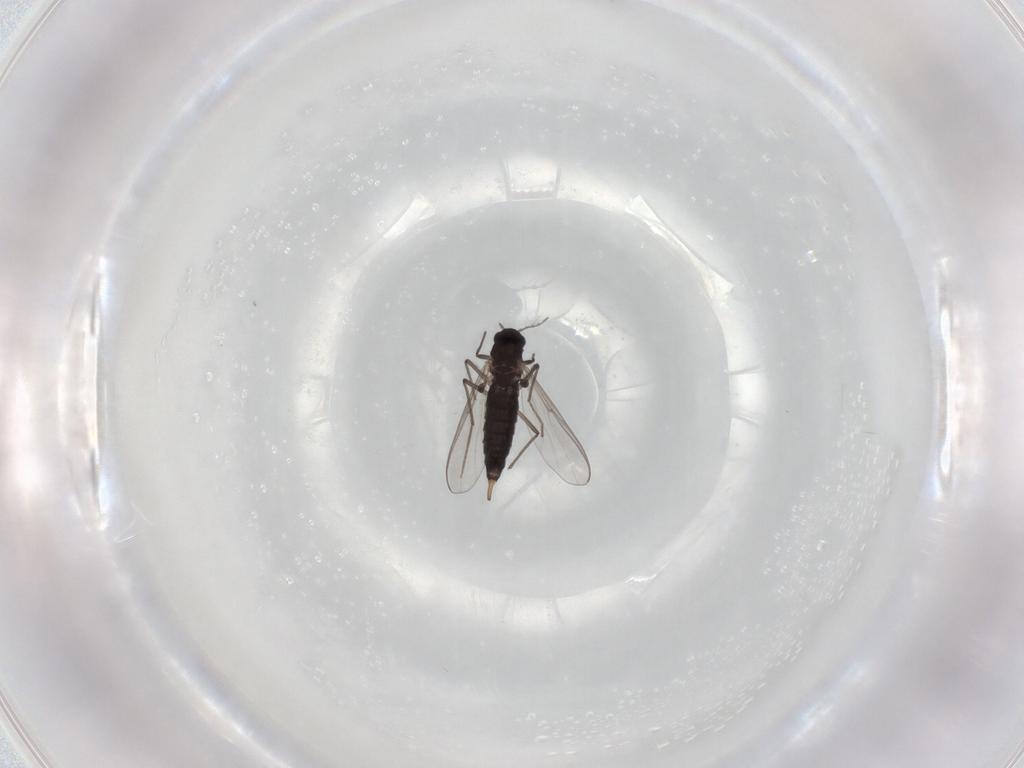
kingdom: Animalia
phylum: Arthropoda
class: Insecta
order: Diptera
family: Chironomidae
